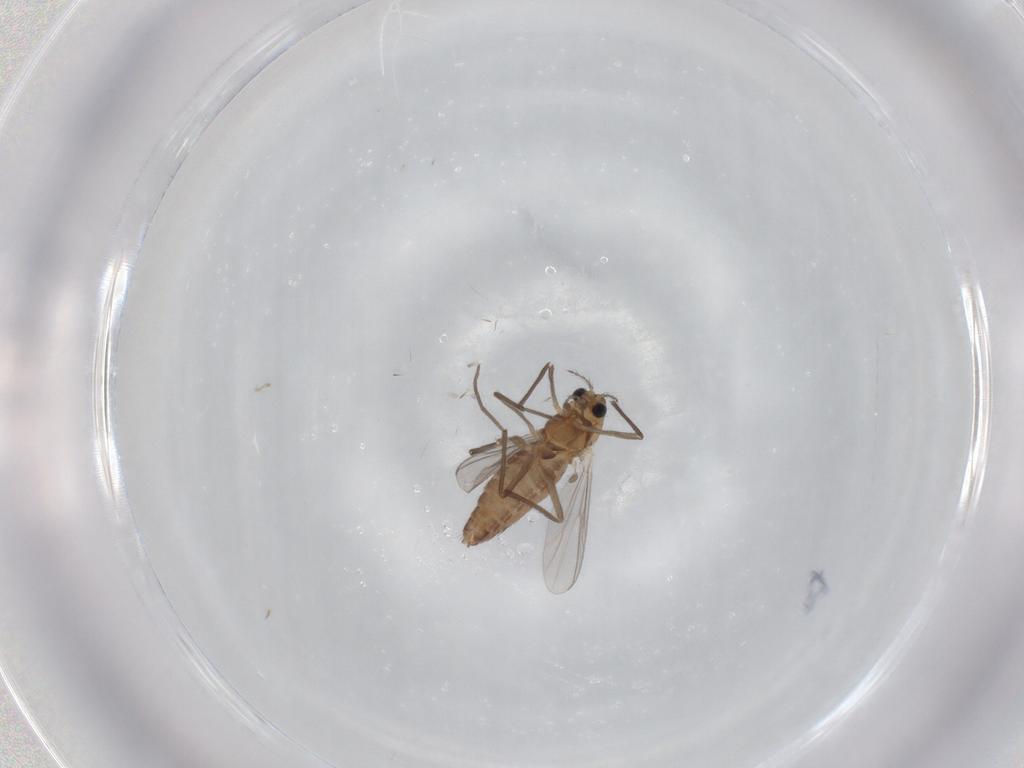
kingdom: Animalia
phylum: Arthropoda
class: Insecta
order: Diptera
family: Chironomidae
